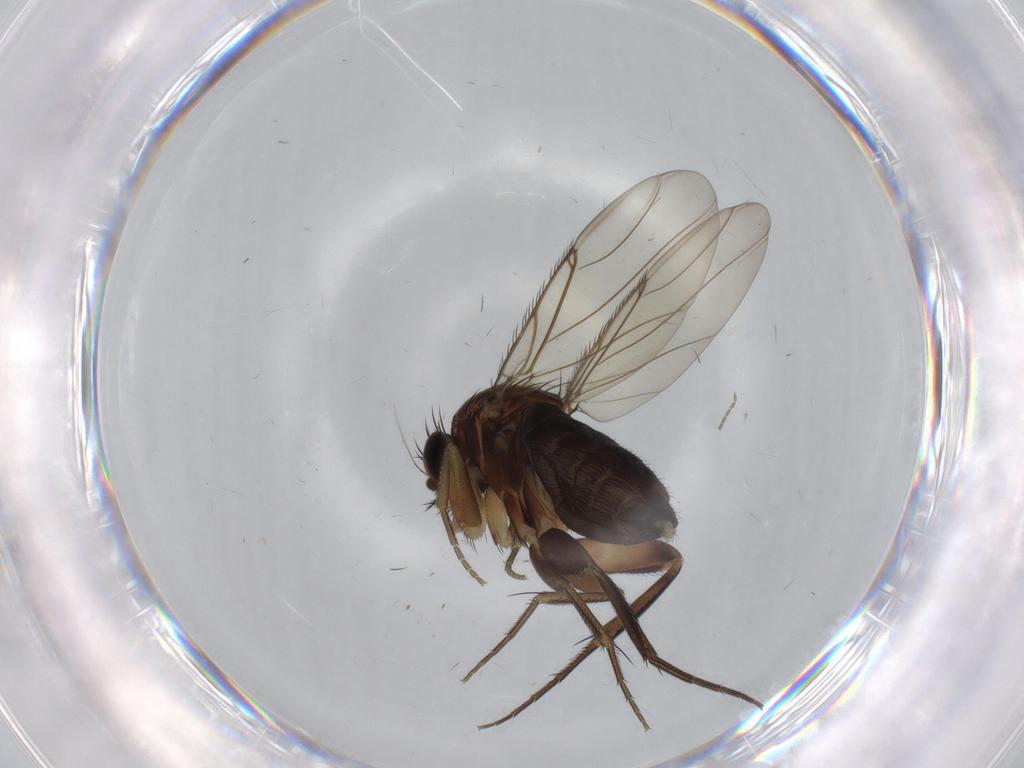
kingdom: Animalia
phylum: Arthropoda
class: Insecta
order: Diptera
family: Phoridae
